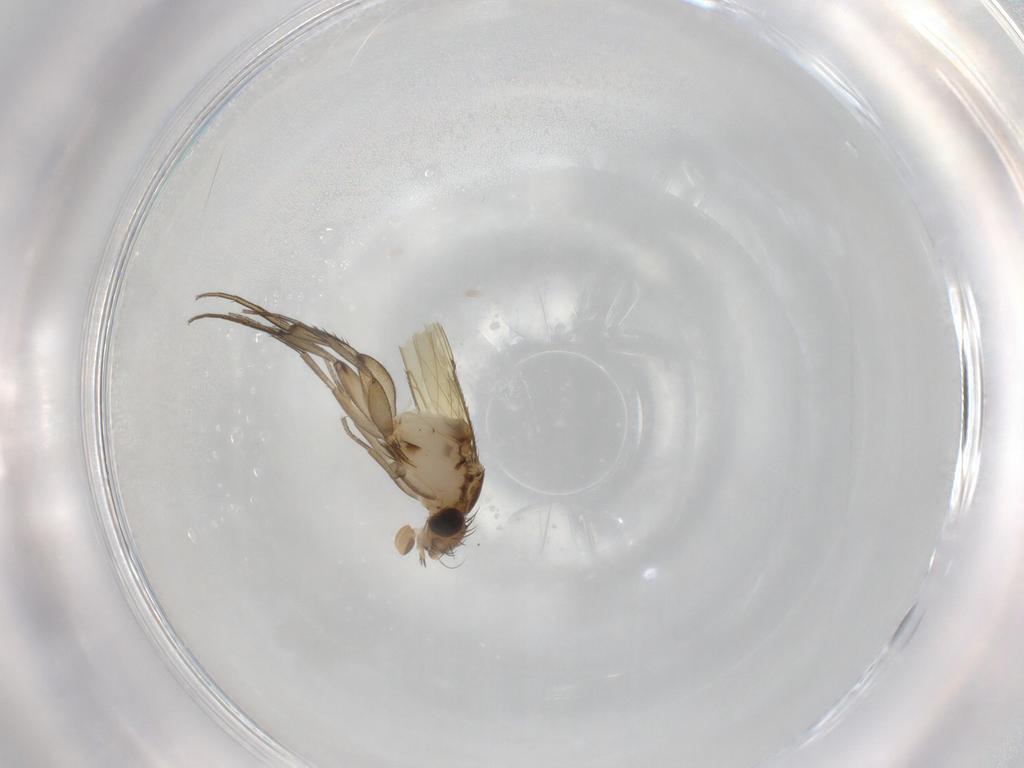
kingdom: Animalia
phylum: Arthropoda
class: Insecta
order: Diptera
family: Phoridae
